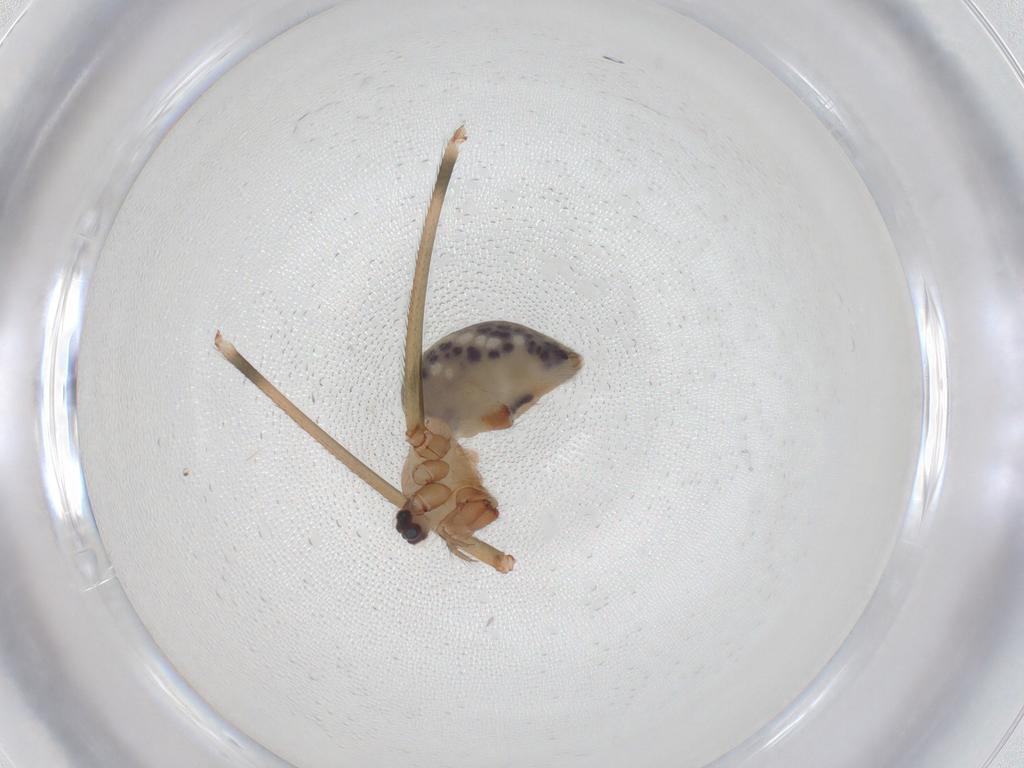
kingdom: Animalia
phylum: Arthropoda
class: Arachnida
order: Araneae
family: Pholcidae
